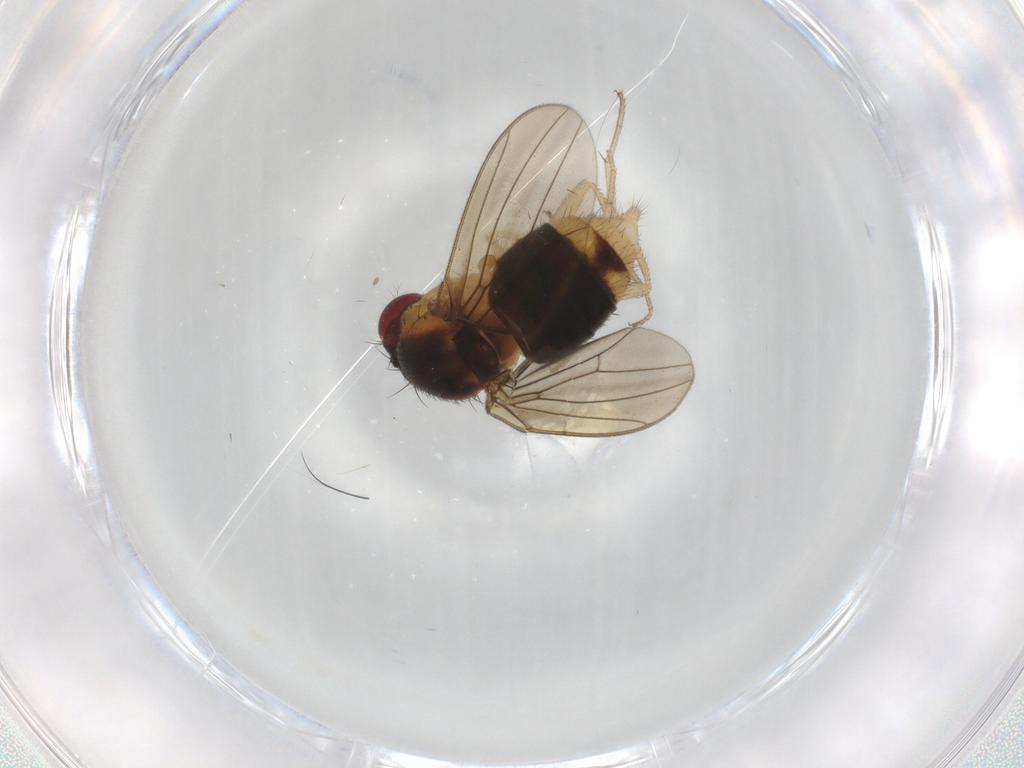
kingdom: Animalia
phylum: Arthropoda
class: Insecta
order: Diptera
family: Drosophilidae
